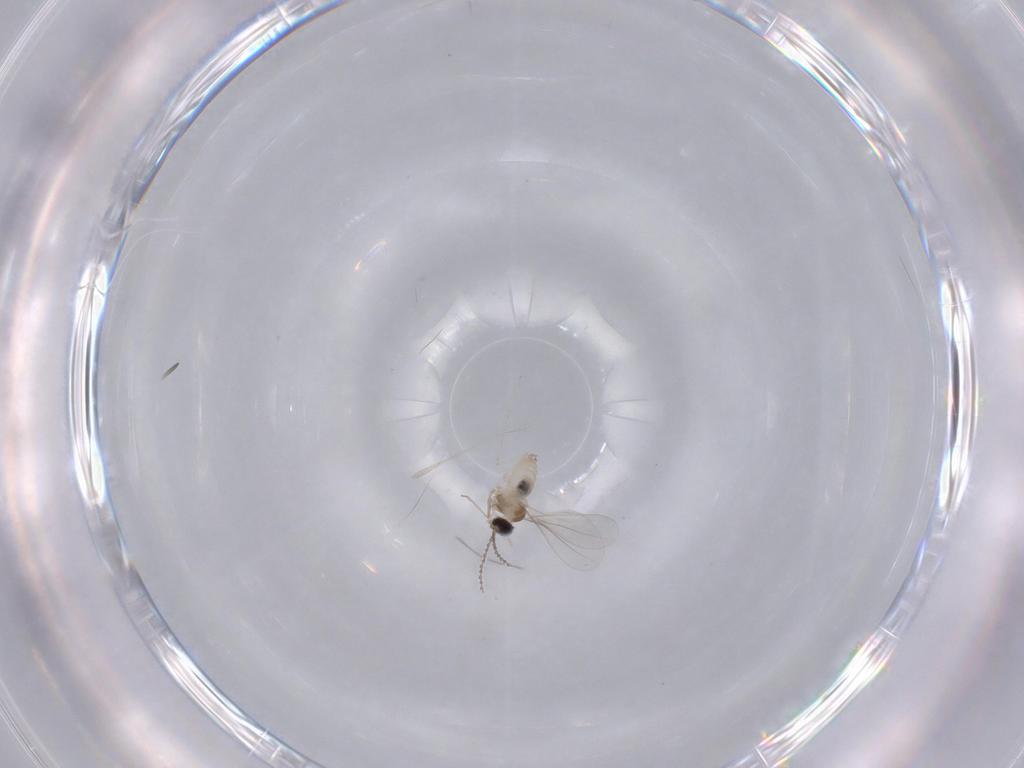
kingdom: Animalia
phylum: Arthropoda
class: Insecta
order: Diptera
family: Cecidomyiidae
